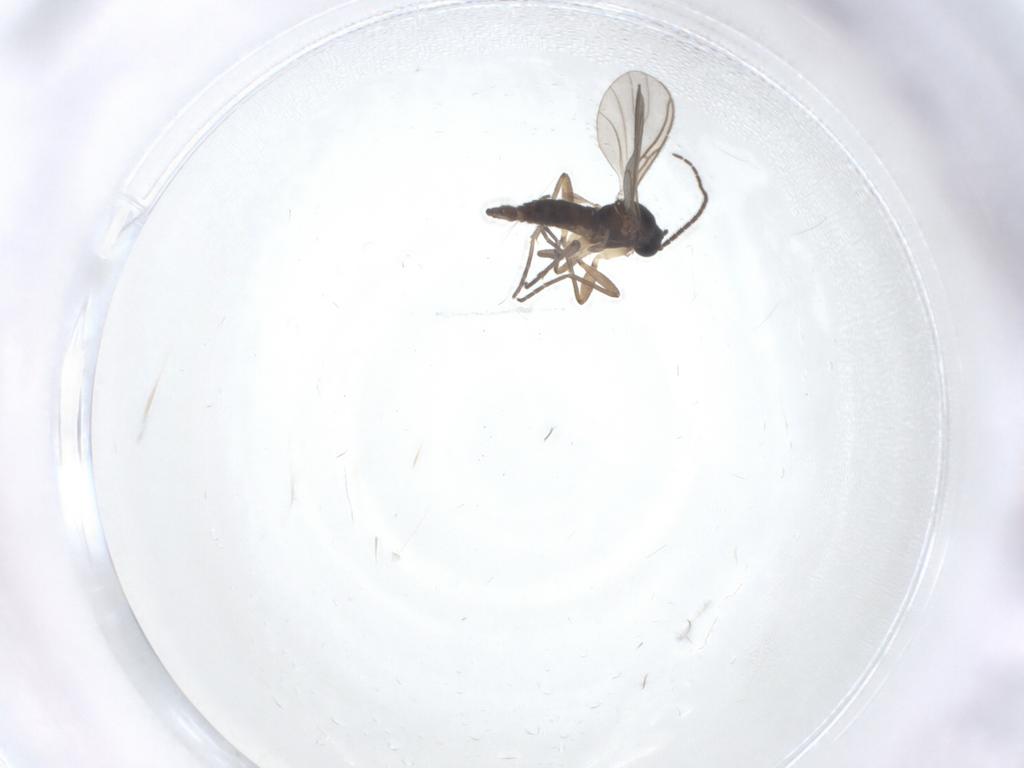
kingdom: Animalia
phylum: Arthropoda
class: Insecta
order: Diptera
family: Sciaridae
